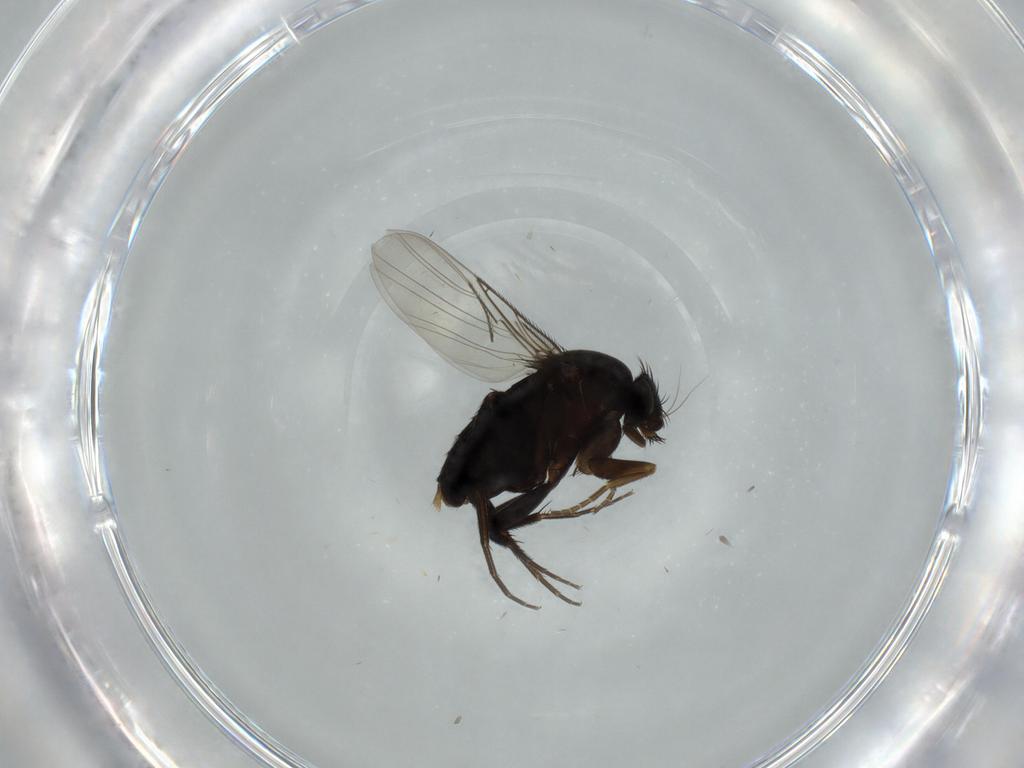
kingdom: Animalia
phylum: Arthropoda
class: Insecta
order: Diptera
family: Phoridae
